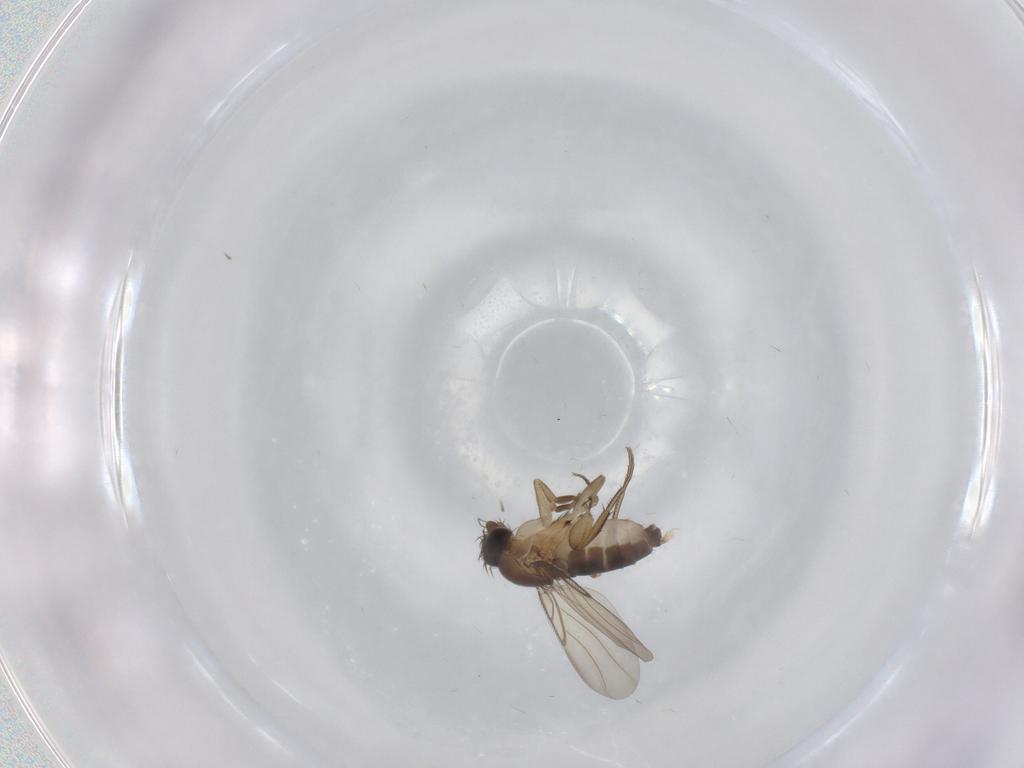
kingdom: Animalia
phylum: Arthropoda
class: Insecta
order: Diptera
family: Phoridae
